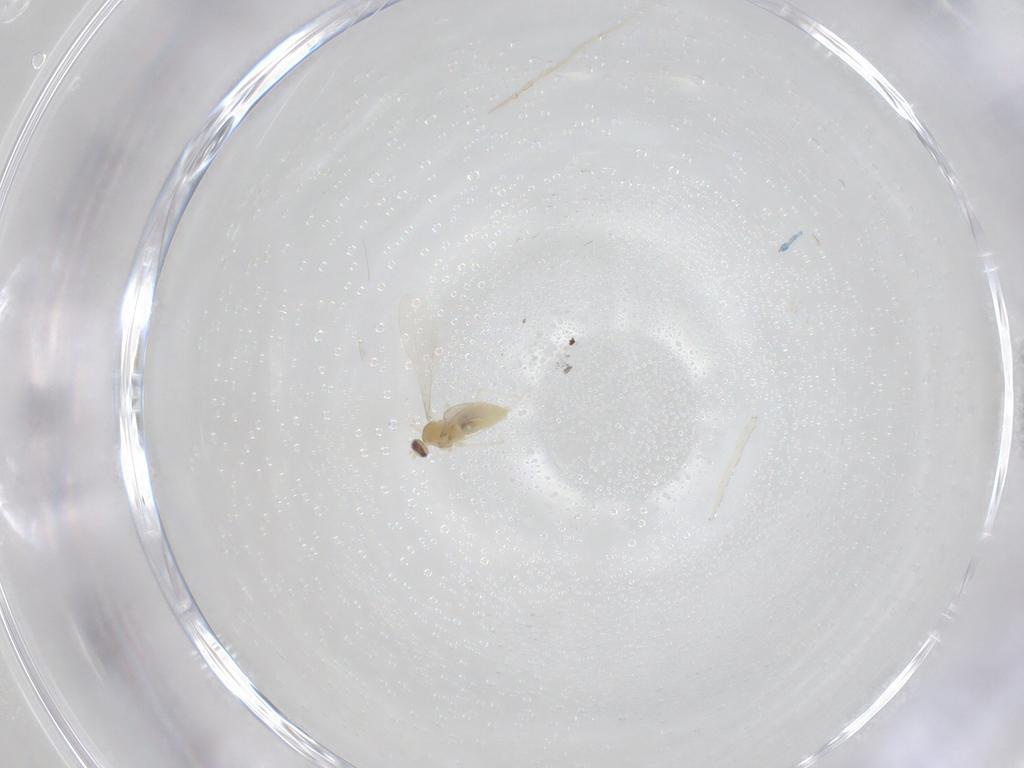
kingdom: Animalia
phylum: Arthropoda
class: Insecta
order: Diptera
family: Cecidomyiidae
